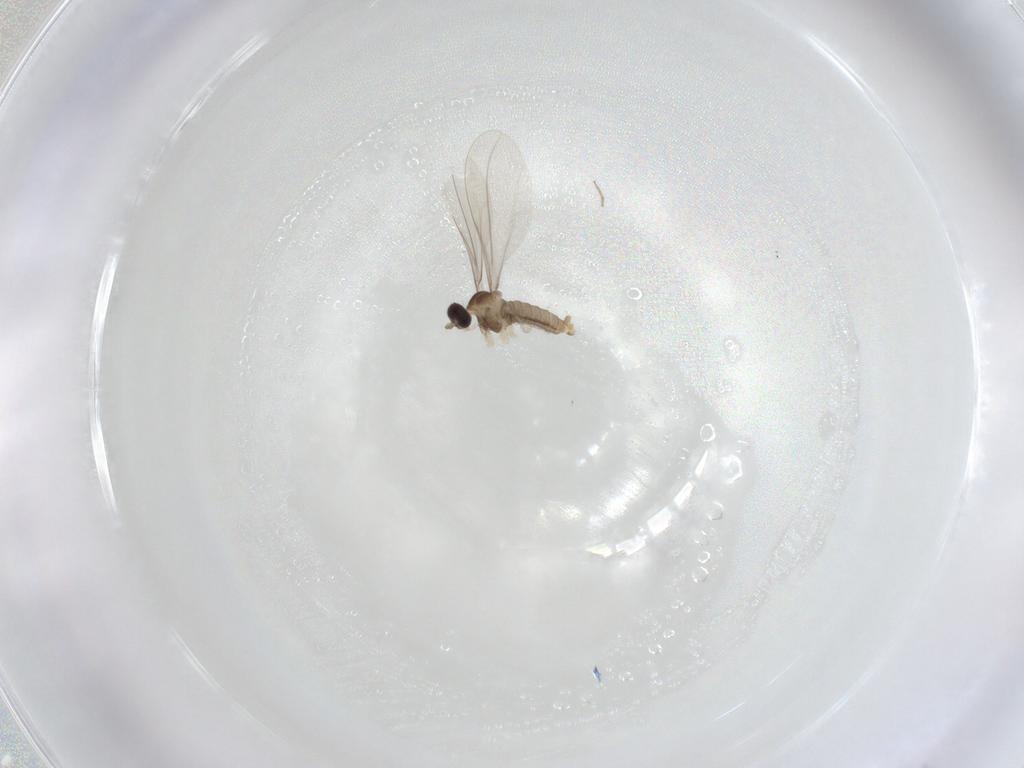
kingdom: Animalia
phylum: Arthropoda
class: Insecta
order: Diptera
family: Cecidomyiidae
